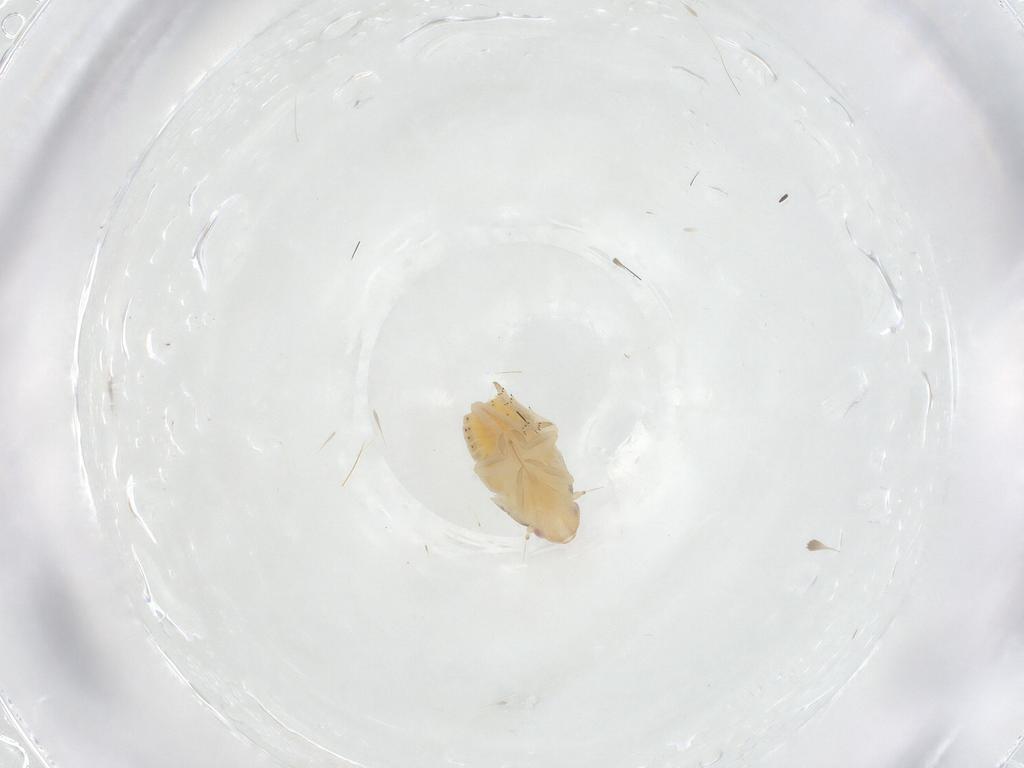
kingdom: Animalia
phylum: Arthropoda
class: Insecta
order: Hemiptera
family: Flatidae
